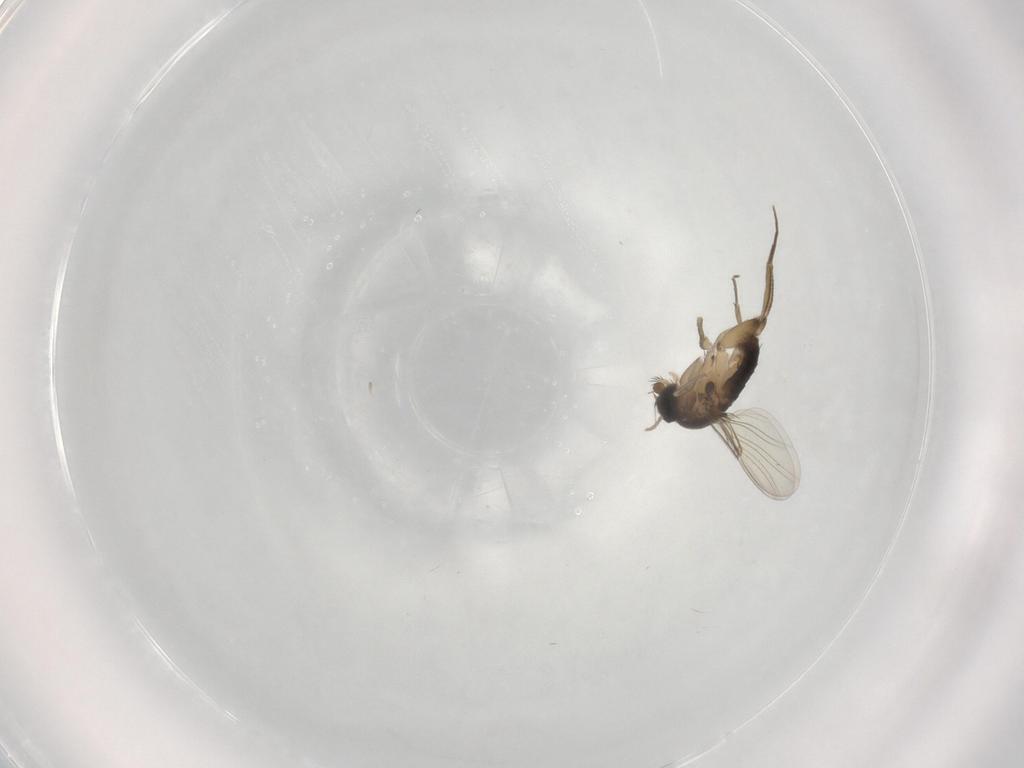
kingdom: Animalia
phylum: Arthropoda
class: Insecta
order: Diptera
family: Phoridae
